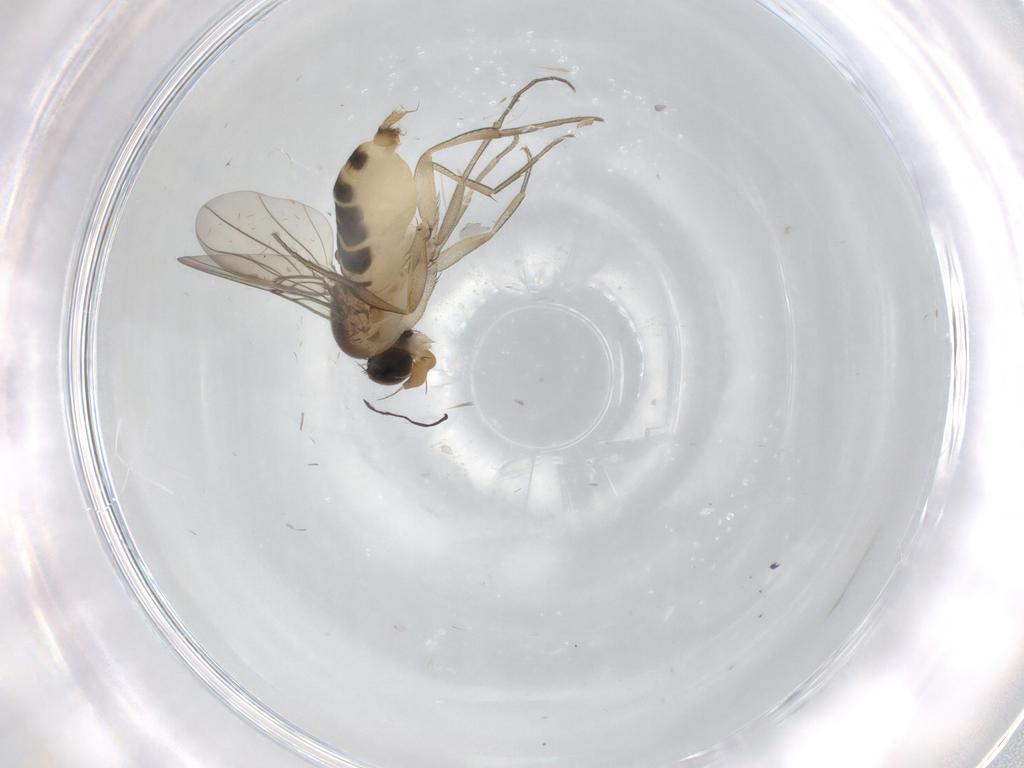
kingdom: Animalia
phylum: Arthropoda
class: Insecta
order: Diptera
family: Phoridae
